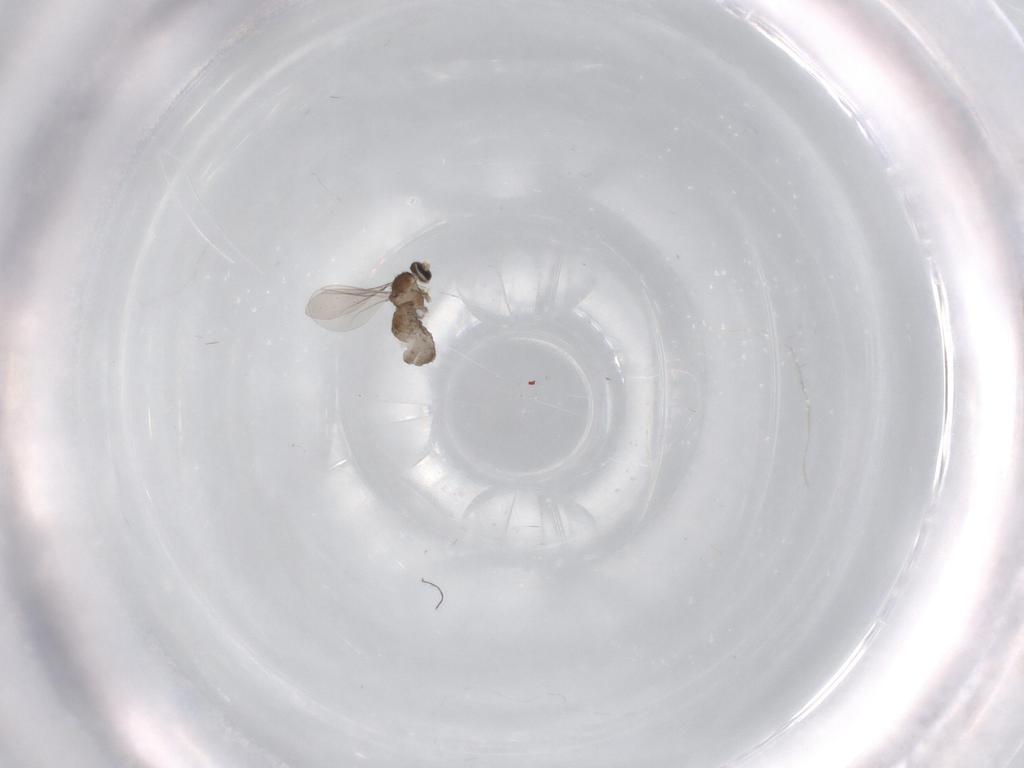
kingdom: Animalia
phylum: Arthropoda
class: Insecta
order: Diptera
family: Cecidomyiidae
